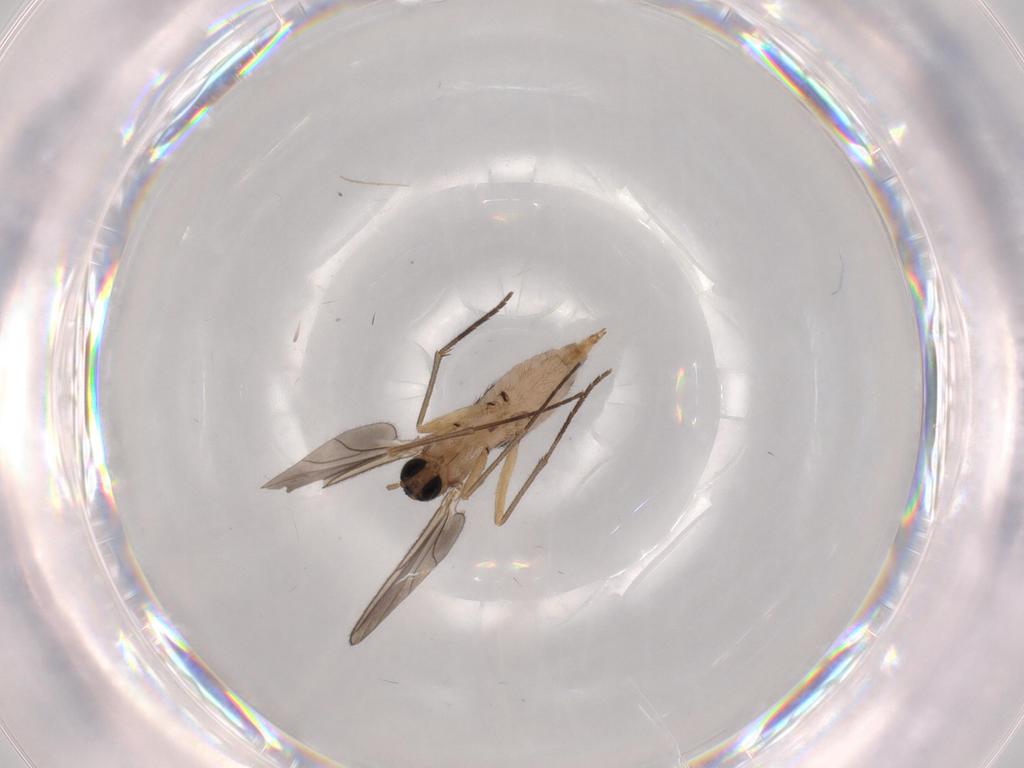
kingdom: Animalia
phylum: Arthropoda
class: Insecta
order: Diptera
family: Sciaridae
